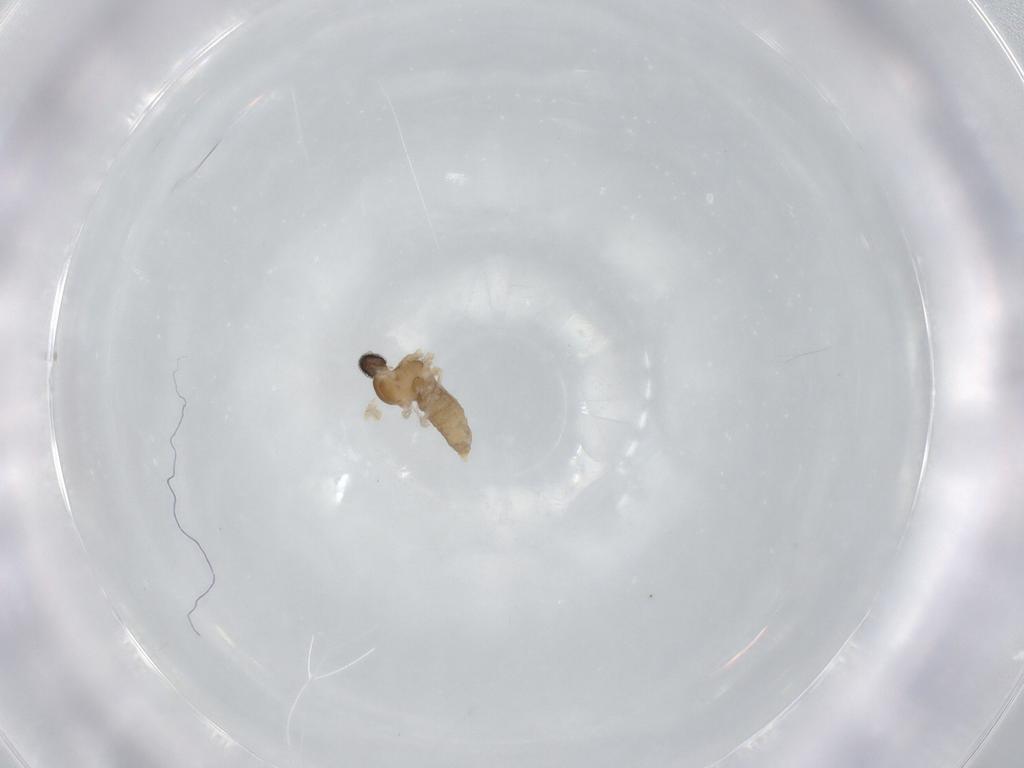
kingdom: Animalia
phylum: Arthropoda
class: Insecta
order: Diptera
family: Cecidomyiidae
